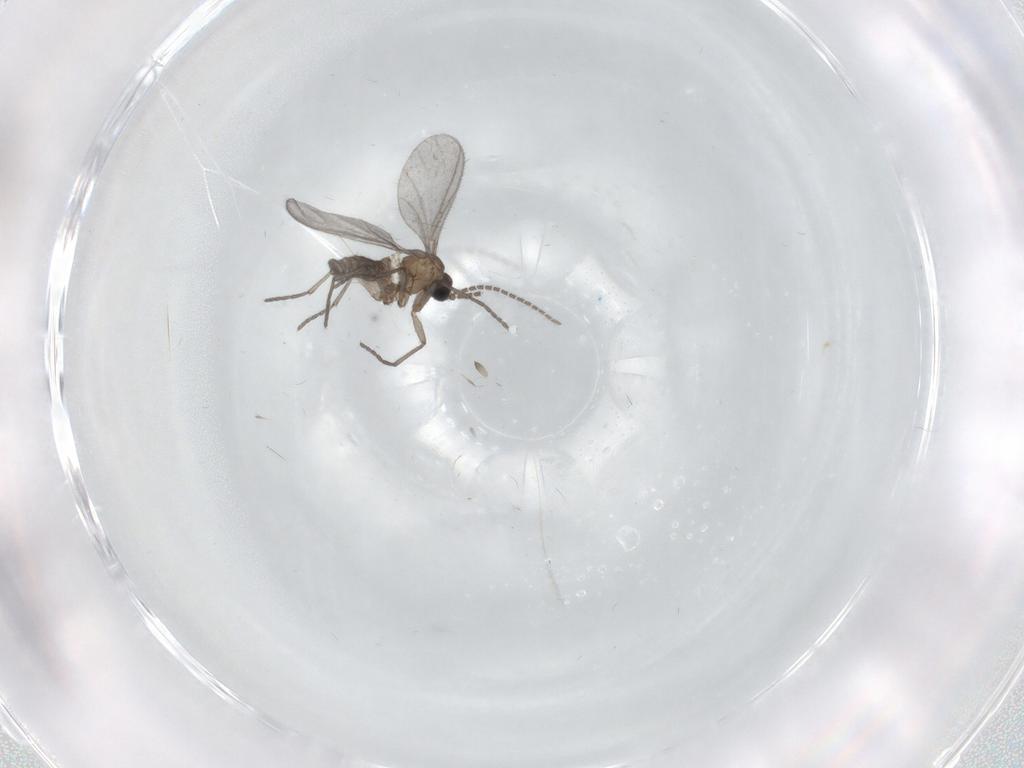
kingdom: Animalia
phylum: Arthropoda
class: Insecta
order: Diptera
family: Sciaridae
